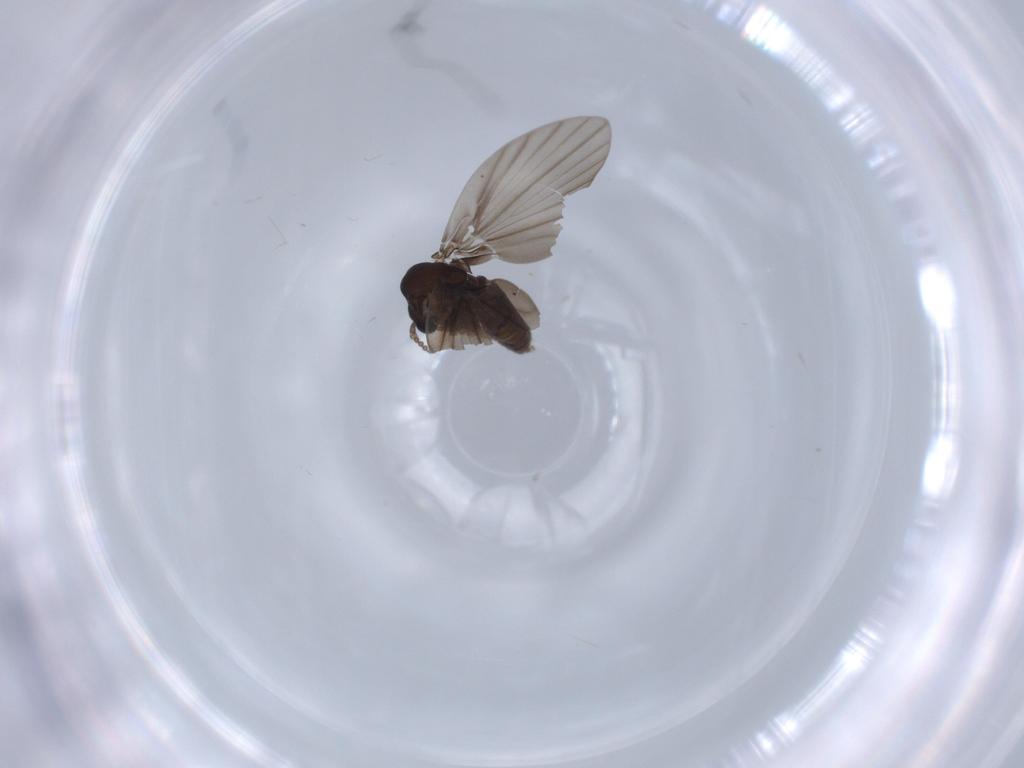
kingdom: Animalia
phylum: Arthropoda
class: Insecta
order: Diptera
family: Psychodidae
